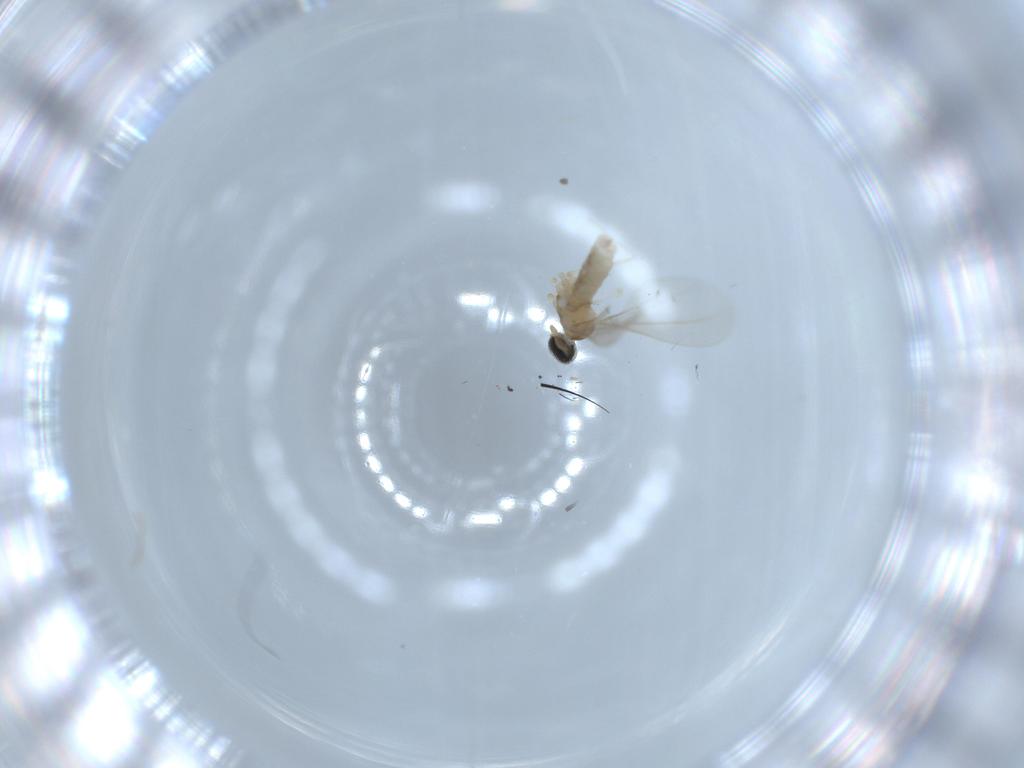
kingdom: Animalia
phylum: Arthropoda
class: Insecta
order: Diptera
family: Cecidomyiidae
